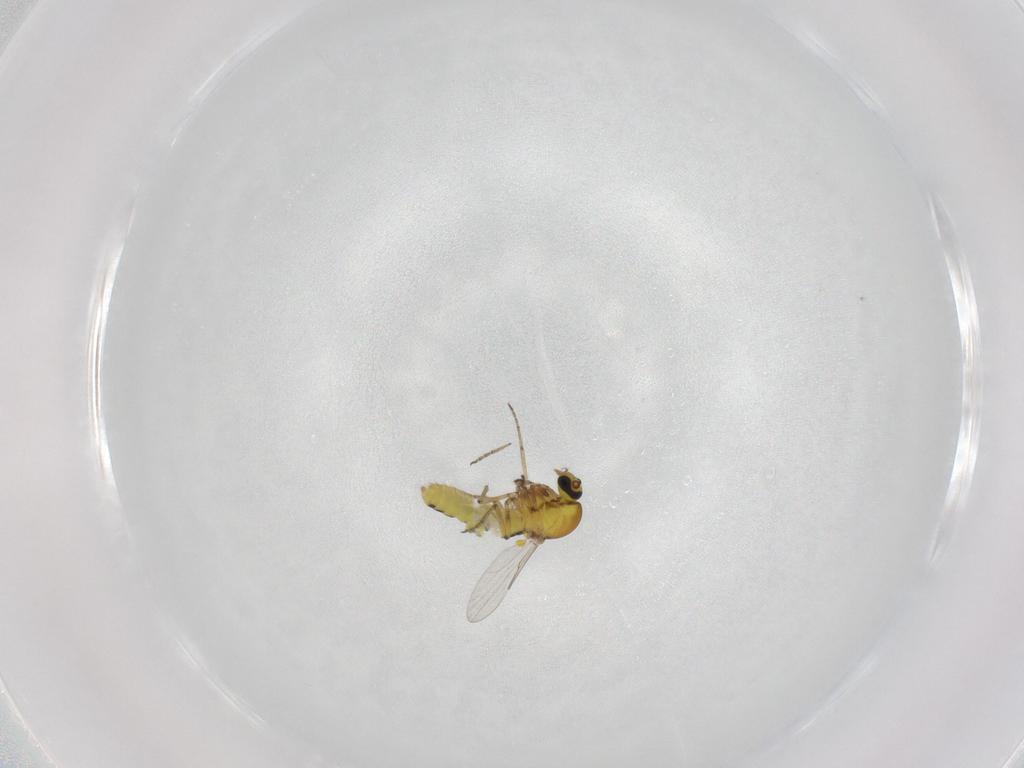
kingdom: Animalia
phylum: Arthropoda
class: Insecta
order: Diptera
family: Ceratopogonidae
